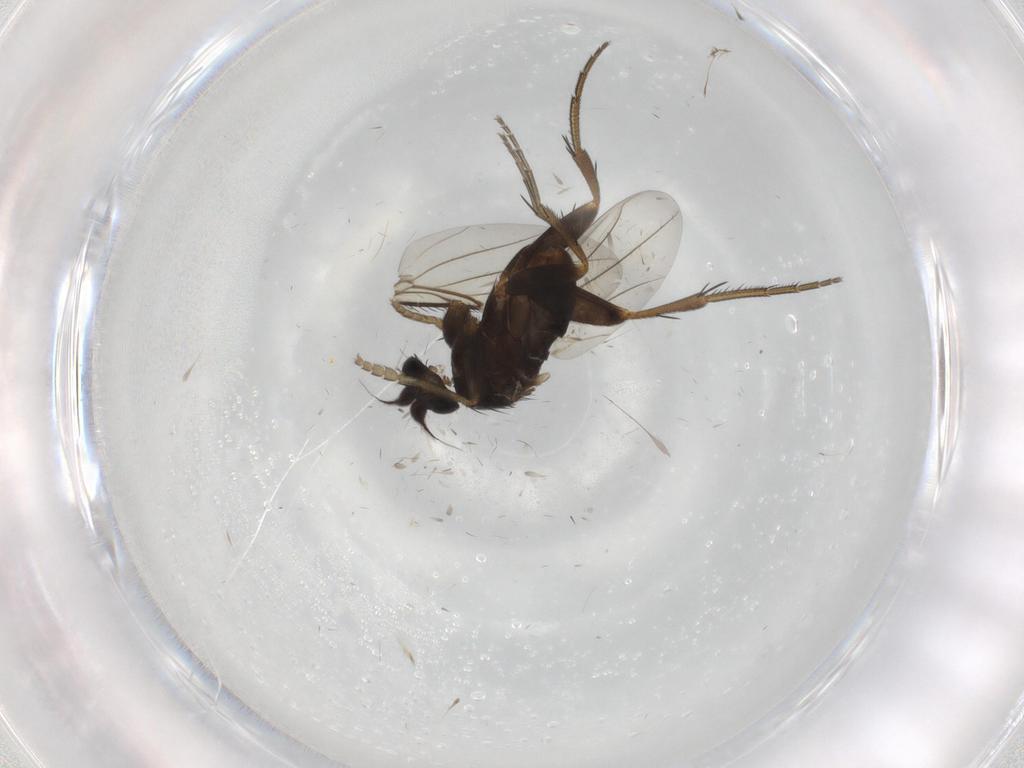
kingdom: Animalia
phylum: Arthropoda
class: Insecta
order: Diptera
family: Phoridae
